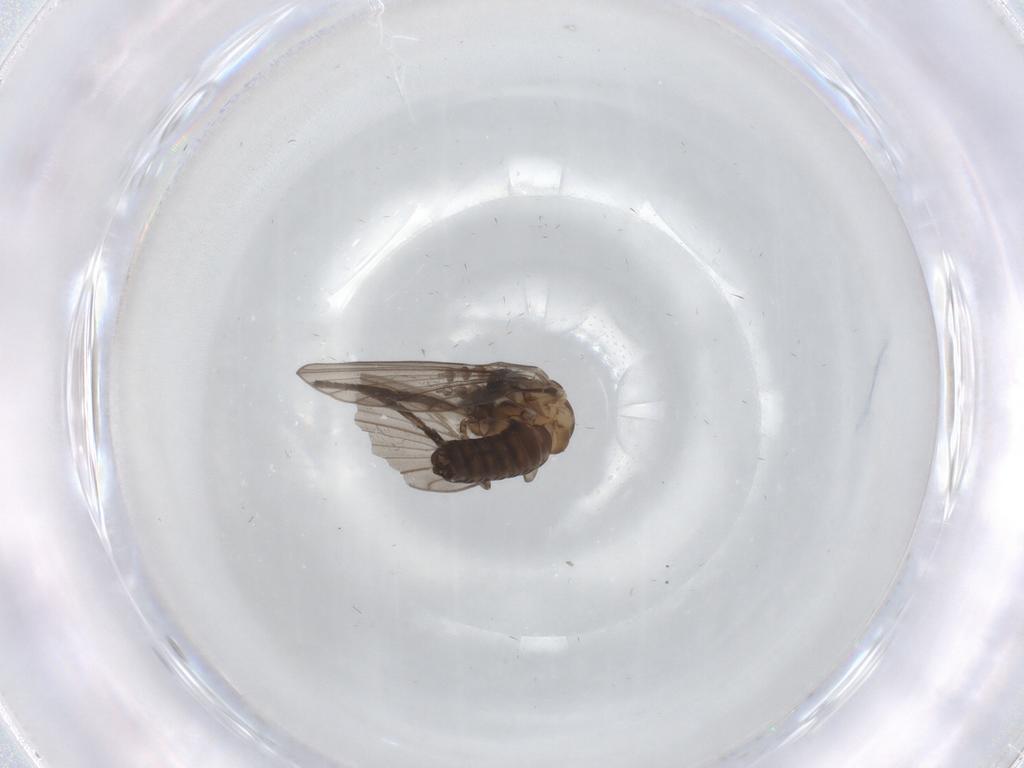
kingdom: Animalia
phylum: Arthropoda
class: Insecta
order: Diptera
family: Psychodidae
